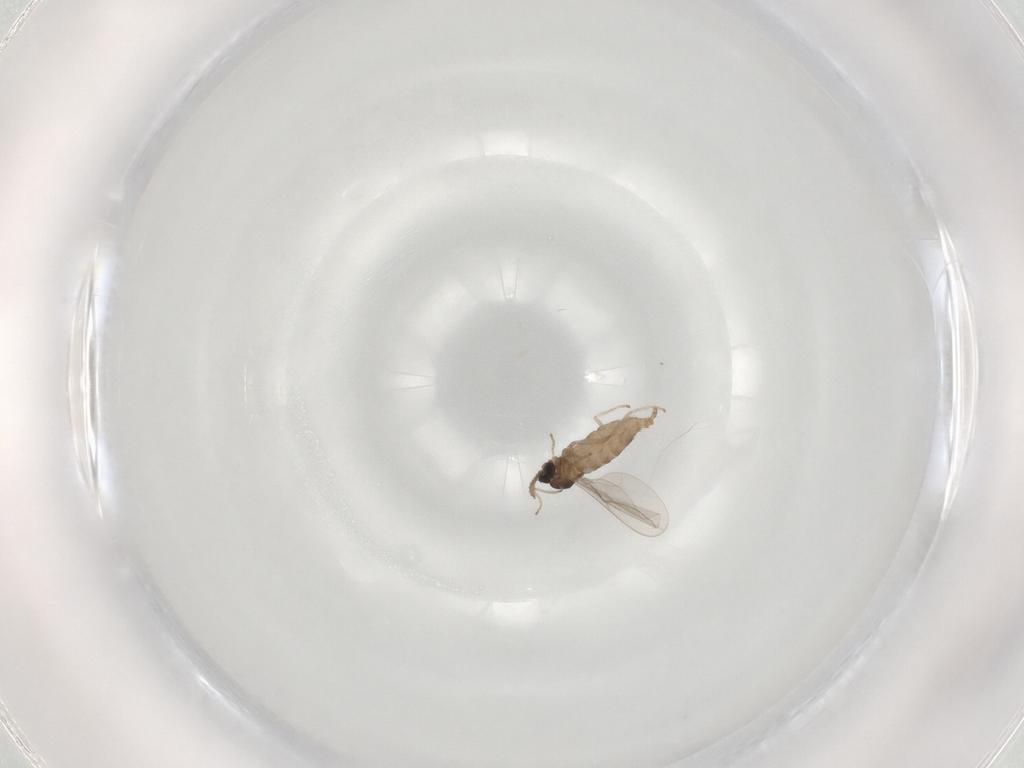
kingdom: Animalia
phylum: Arthropoda
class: Insecta
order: Diptera
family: Cecidomyiidae
